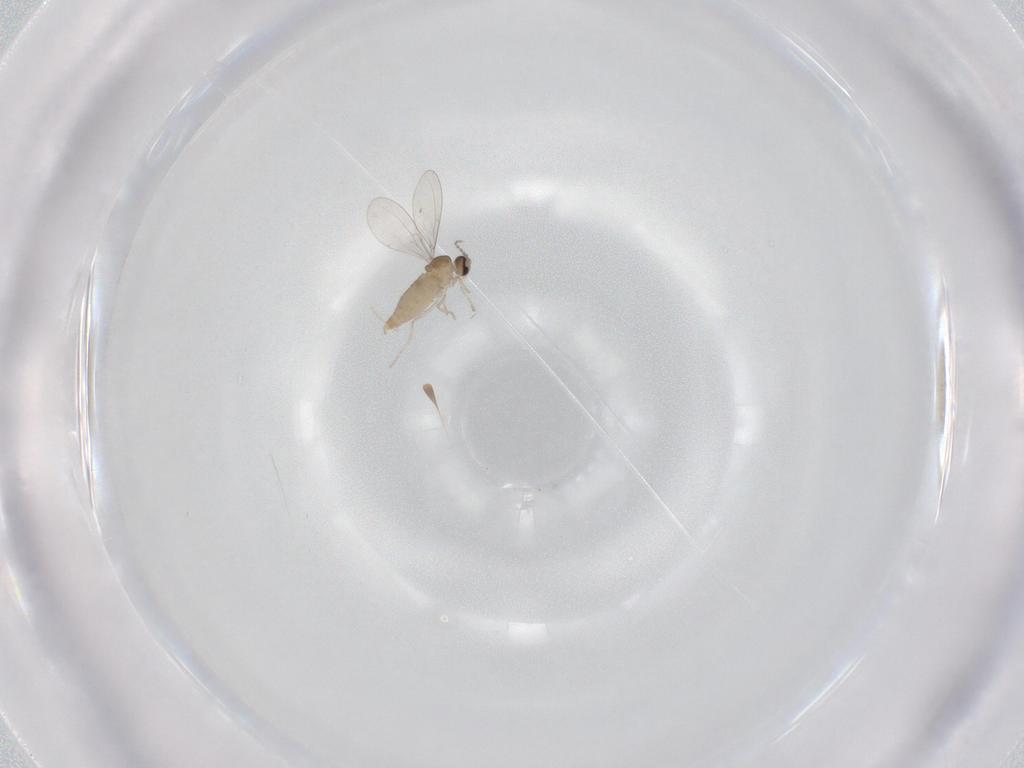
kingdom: Animalia
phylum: Arthropoda
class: Insecta
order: Diptera
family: Cecidomyiidae
